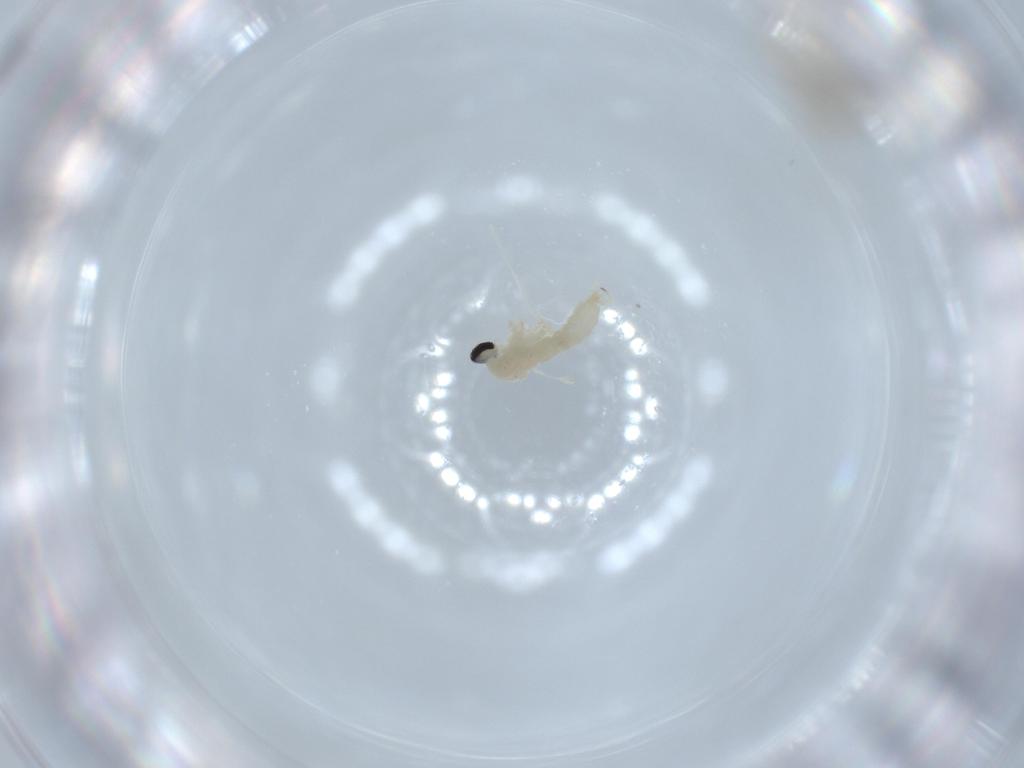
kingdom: Animalia
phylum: Arthropoda
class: Insecta
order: Diptera
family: Cecidomyiidae
